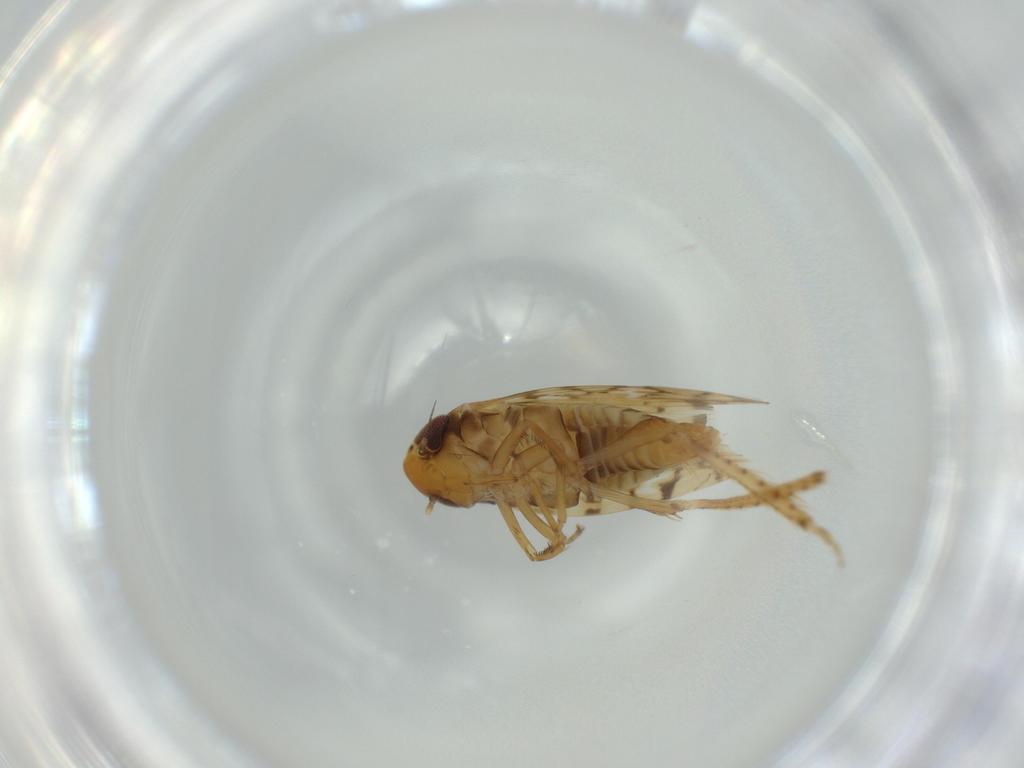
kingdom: Animalia
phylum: Arthropoda
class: Insecta
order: Hemiptera
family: Cicadellidae
